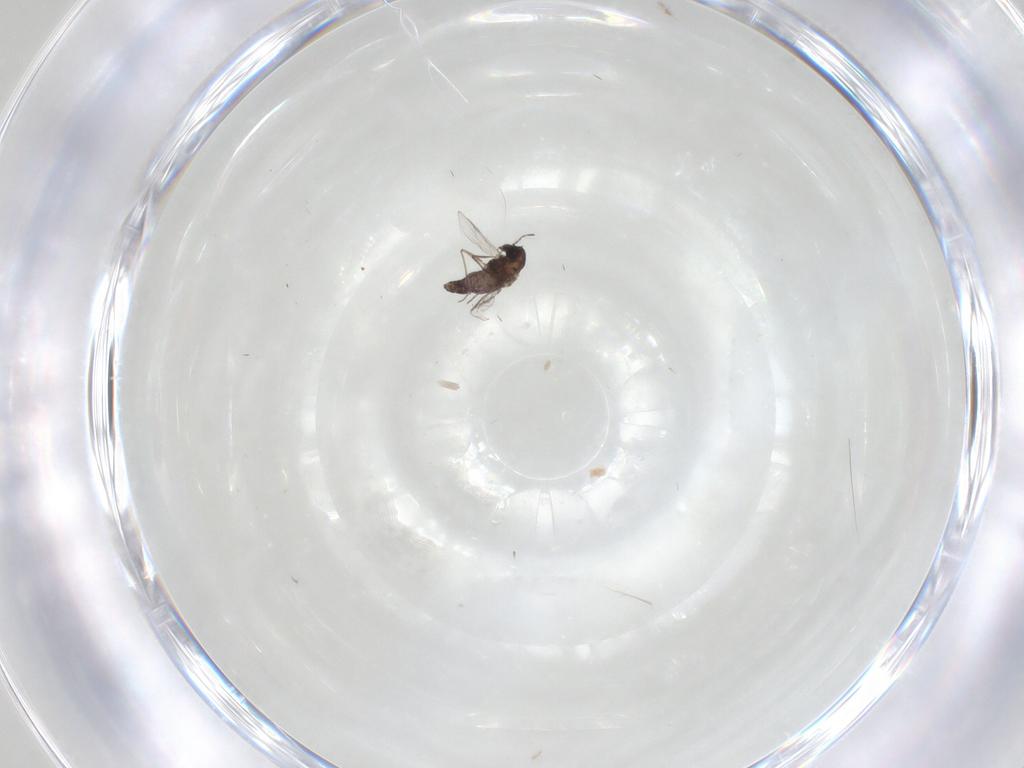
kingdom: Animalia
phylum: Arthropoda
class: Insecta
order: Diptera
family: Chironomidae
